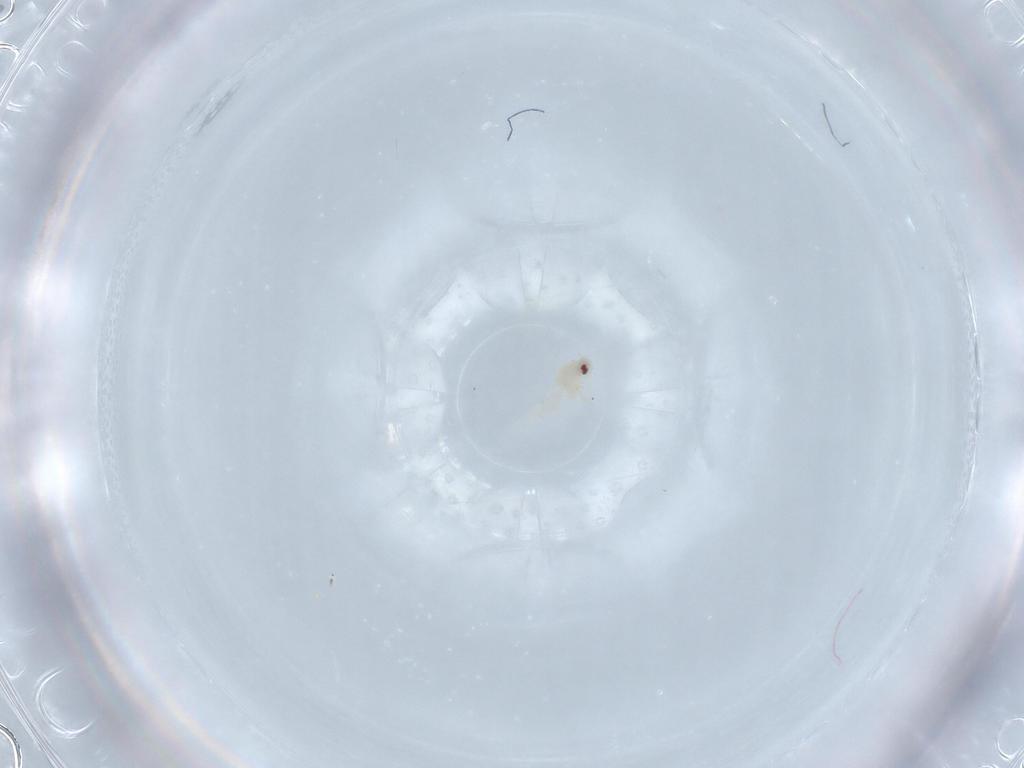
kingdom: Animalia
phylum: Arthropoda
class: Insecta
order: Hemiptera
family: Aleyrodidae
